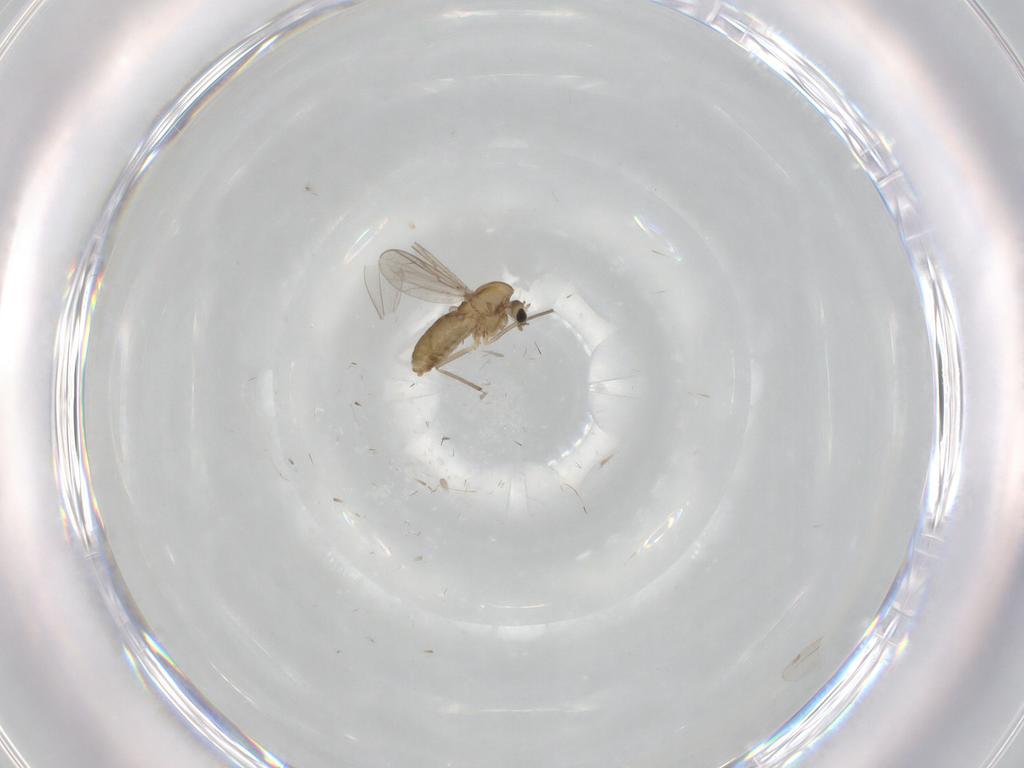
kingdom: Animalia
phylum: Arthropoda
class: Insecta
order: Diptera
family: Chironomidae
